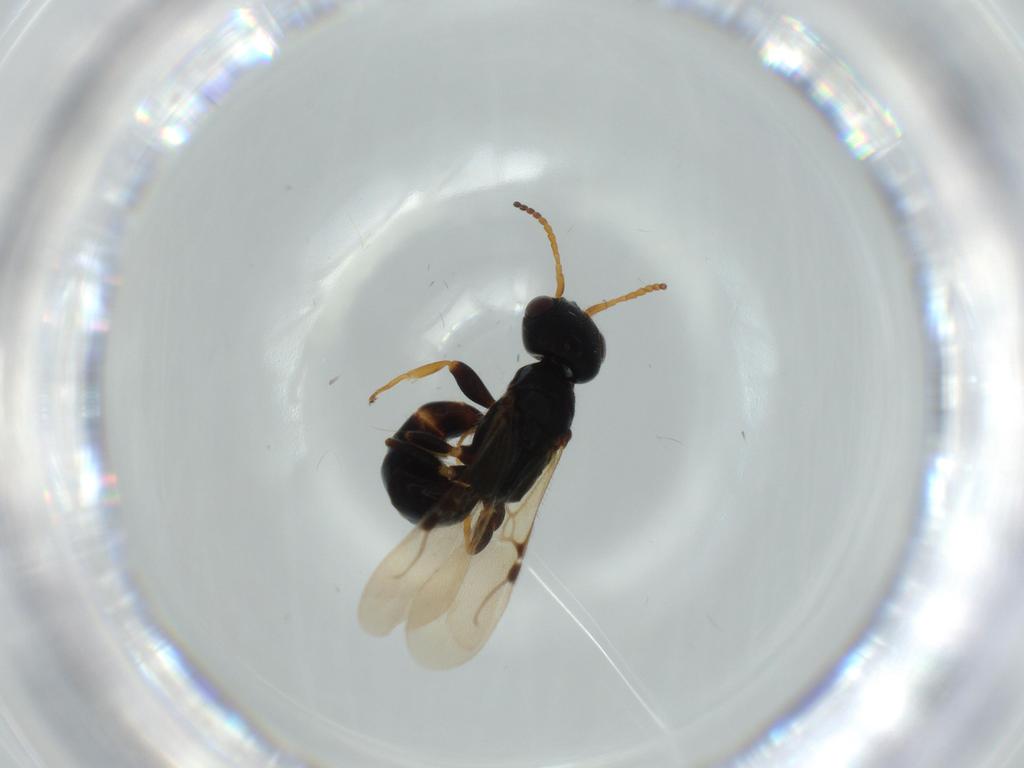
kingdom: Animalia
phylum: Arthropoda
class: Insecta
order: Hymenoptera
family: Bethylidae
